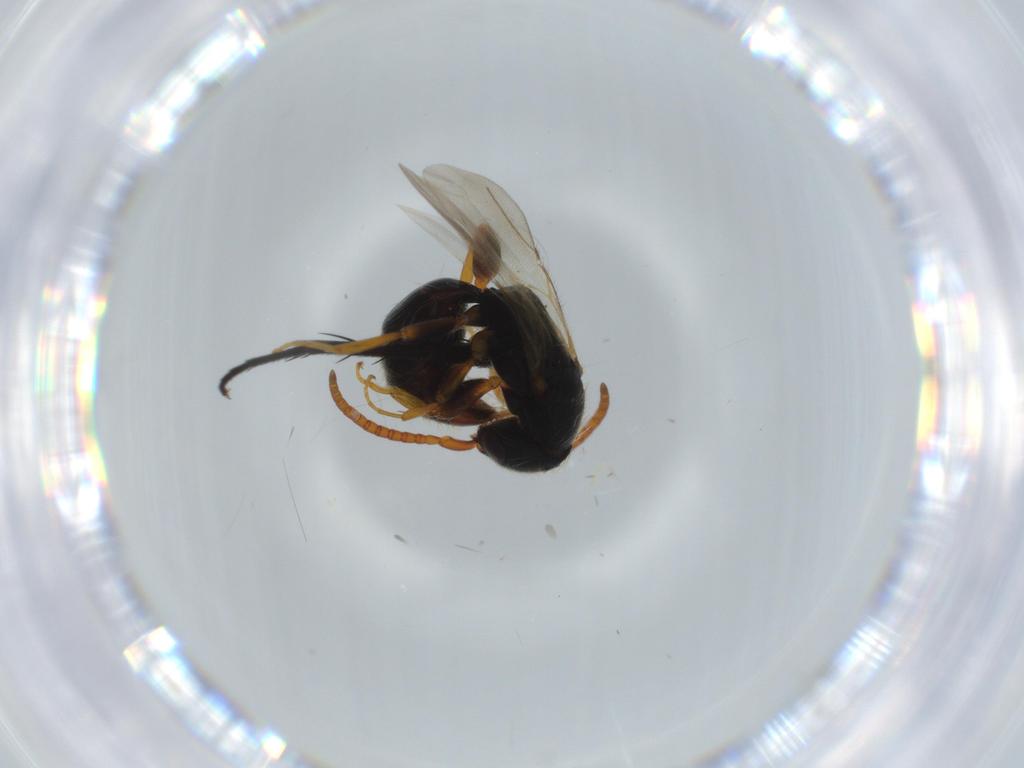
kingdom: Animalia
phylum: Arthropoda
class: Insecta
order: Hymenoptera
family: Bethylidae
